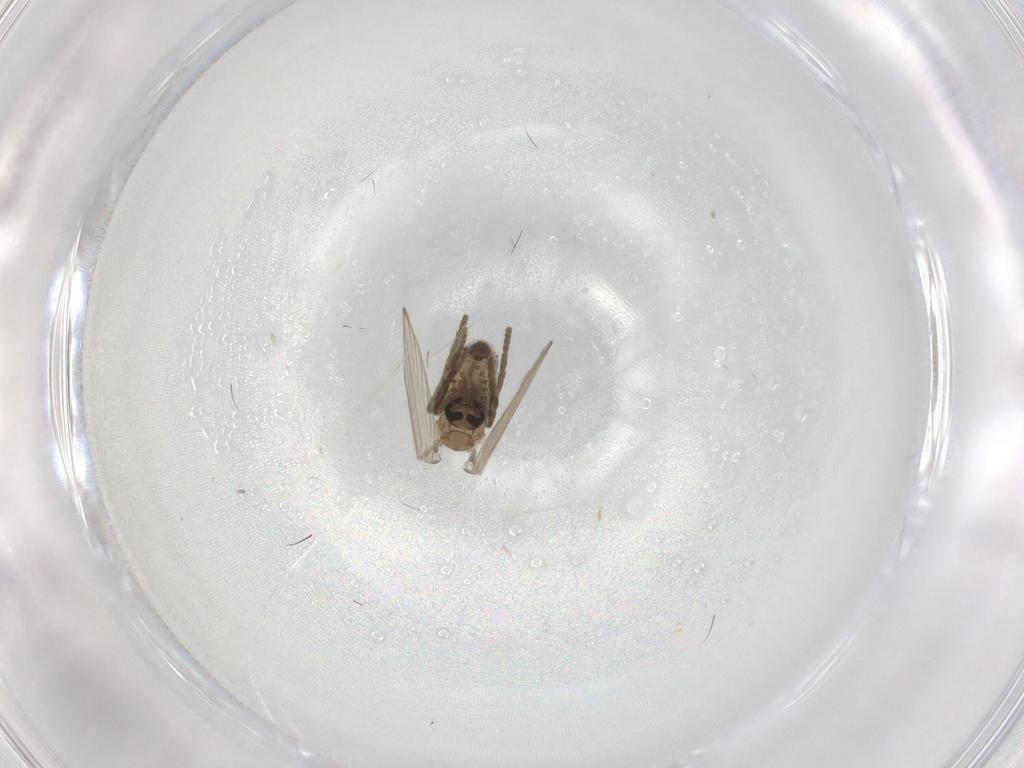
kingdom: Animalia
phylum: Arthropoda
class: Insecta
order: Diptera
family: Psychodidae
